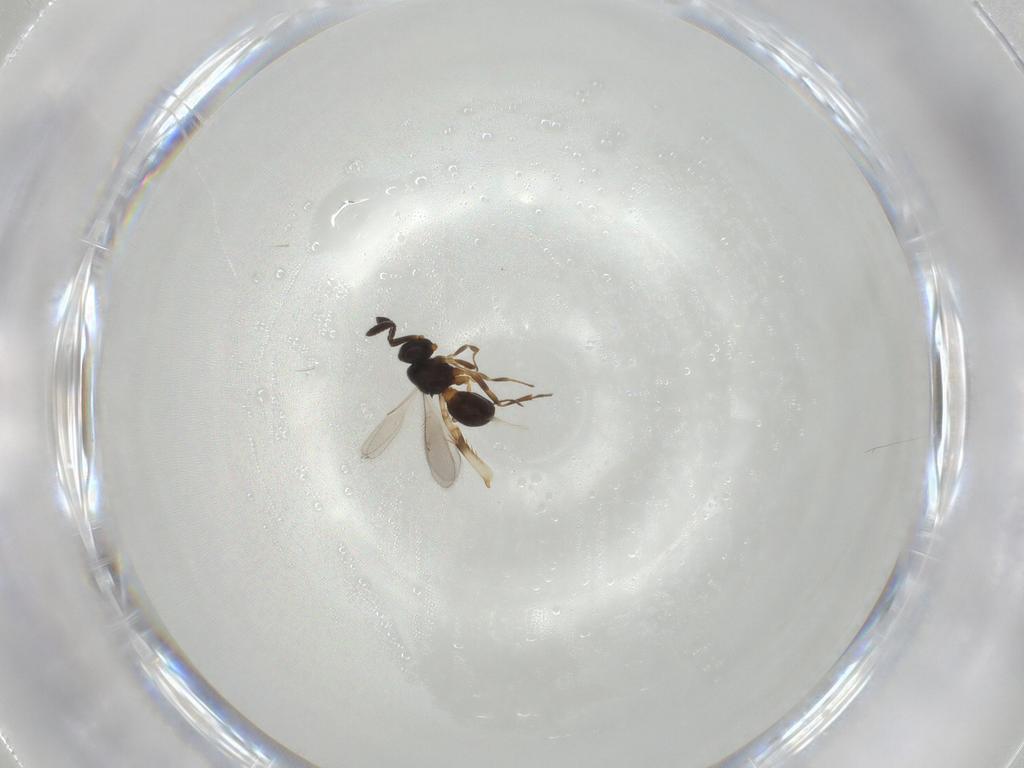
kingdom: Animalia
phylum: Arthropoda
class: Insecta
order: Hymenoptera
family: Scelionidae
